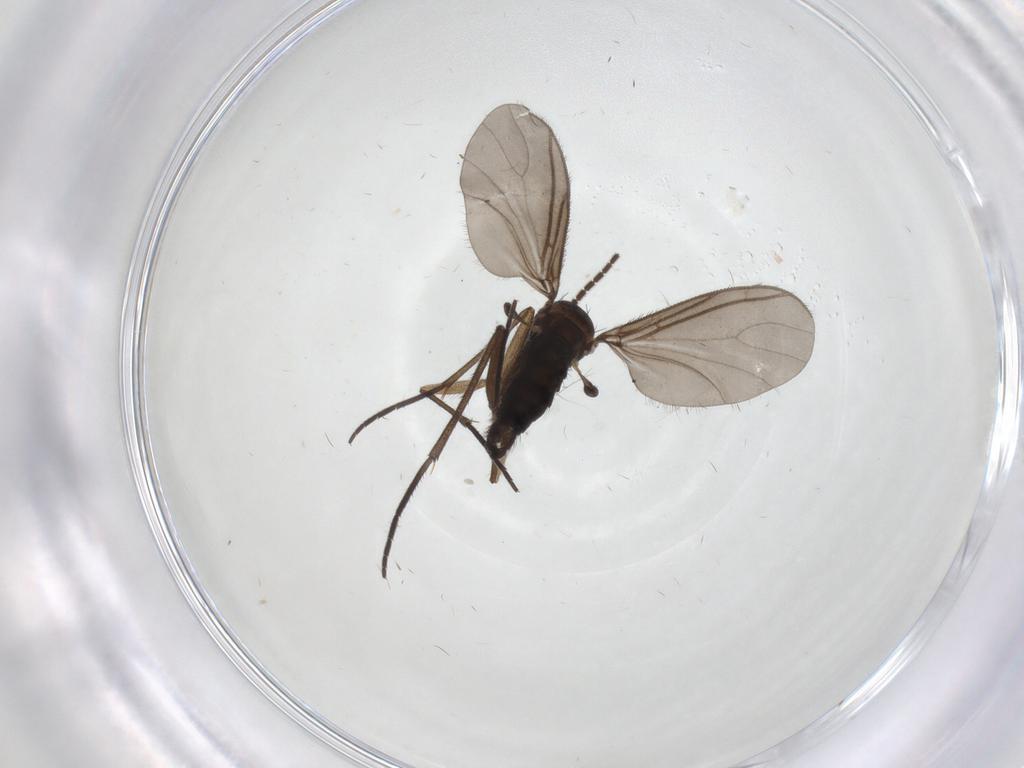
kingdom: Animalia
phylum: Arthropoda
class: Insecta
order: Diptera
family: Sciaridae
